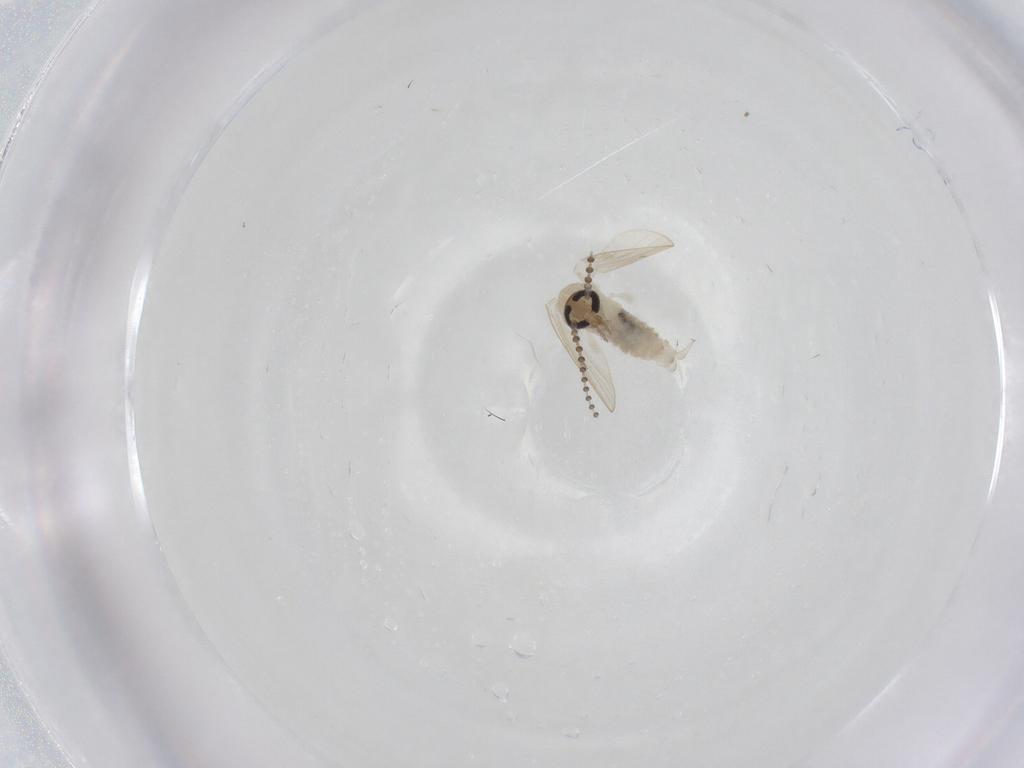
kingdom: Animalia
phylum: Arthropoda
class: Insecta
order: Diptera
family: Psychodidae
